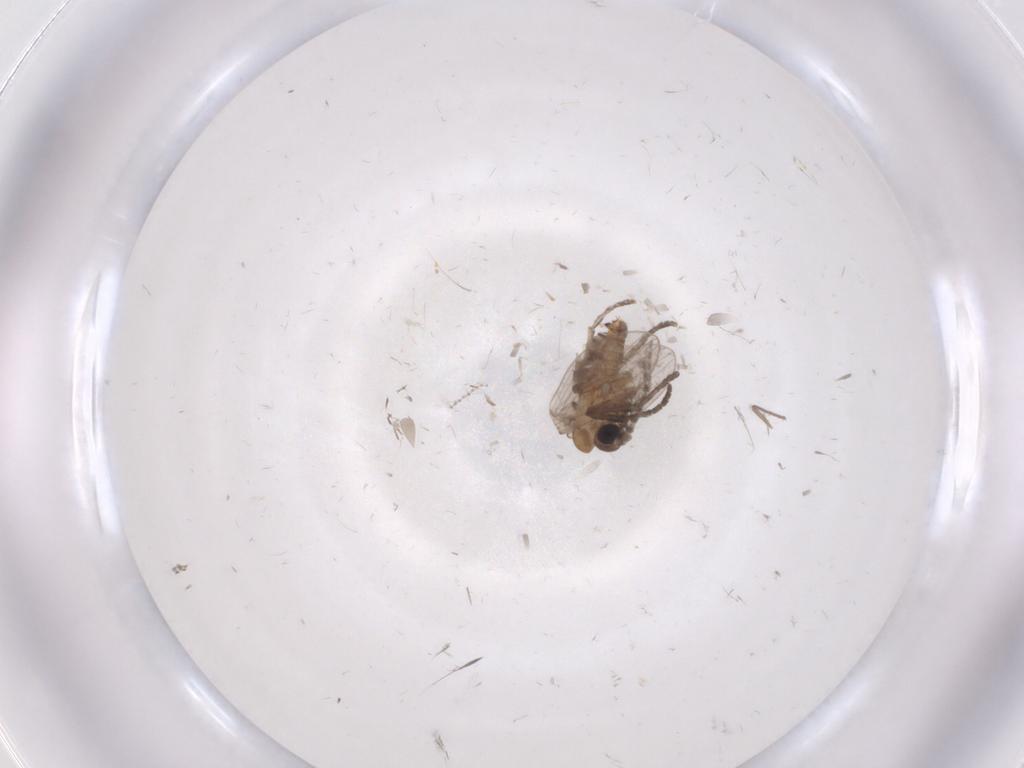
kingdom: Animalia
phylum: Arthropoda
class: Insecta
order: Diptera
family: Cecidomyiidae
